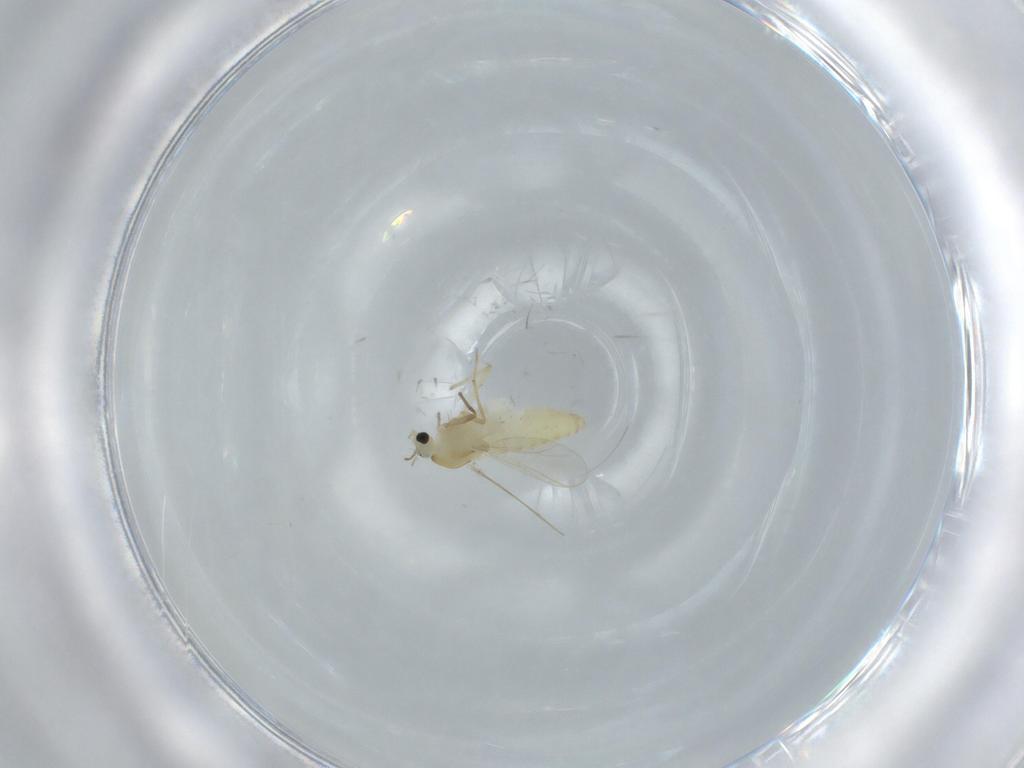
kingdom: Animalia
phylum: Arthropoda
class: Insecta
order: Diptera
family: Chironomidae
